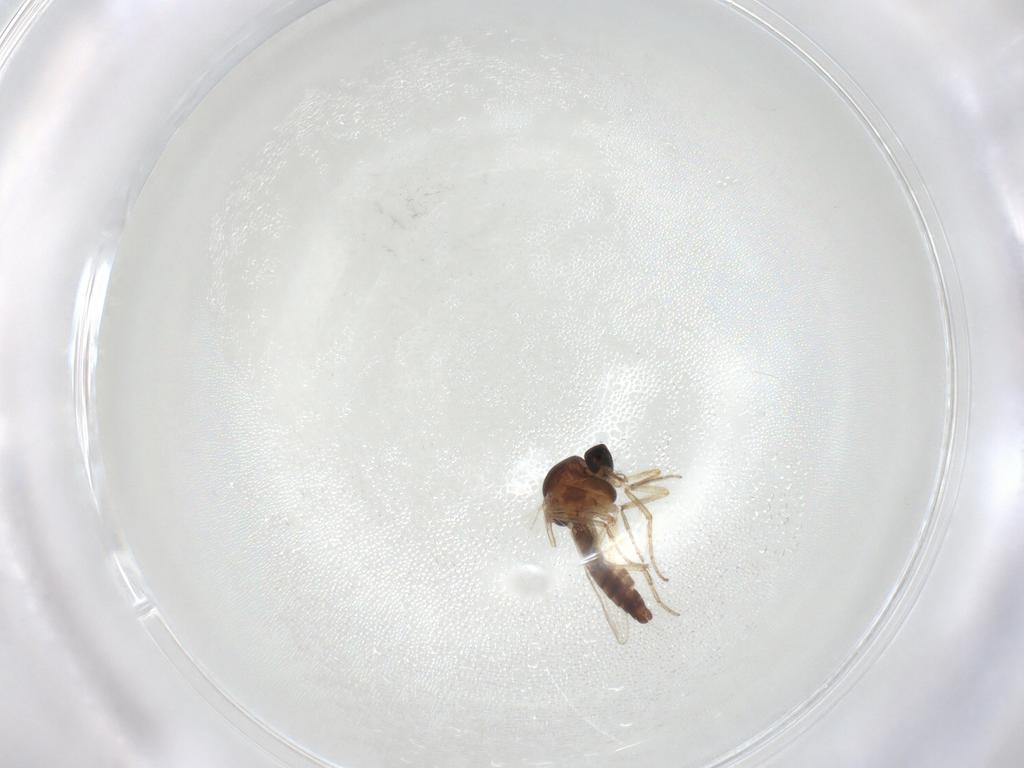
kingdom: Animalia
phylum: Arthropoda
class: Insecta
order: Diptera
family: Ceratopogonidae
